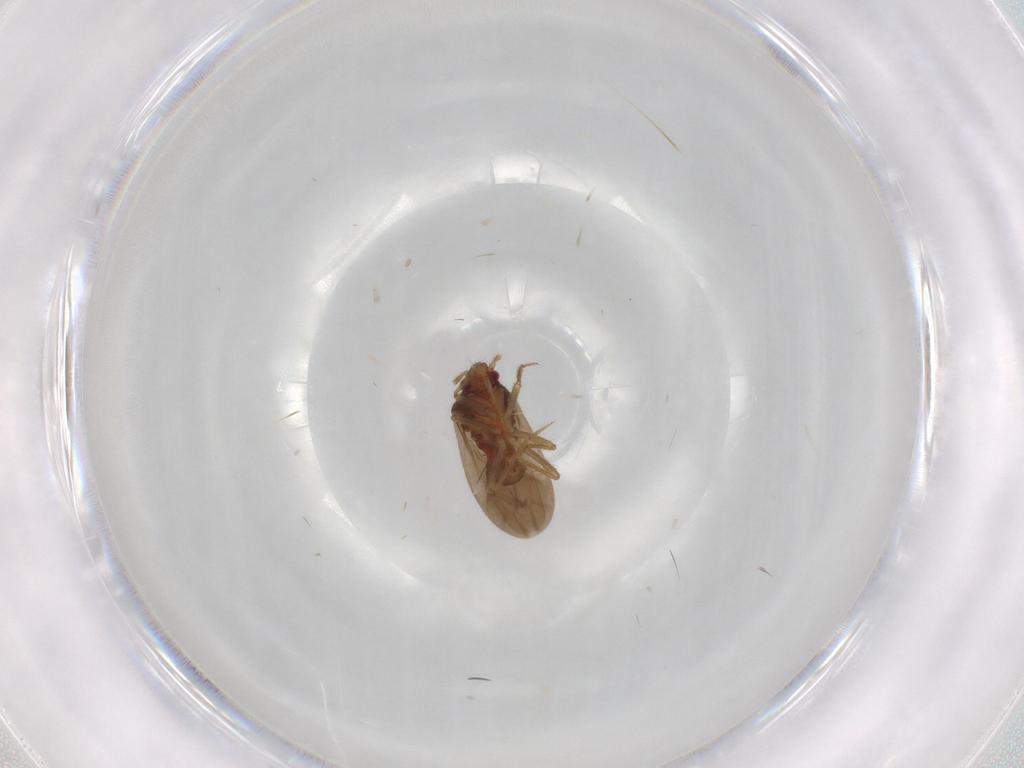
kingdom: Animalia
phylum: Arthropoda
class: Insecta
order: Hemiptera
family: Ceratocombidae
